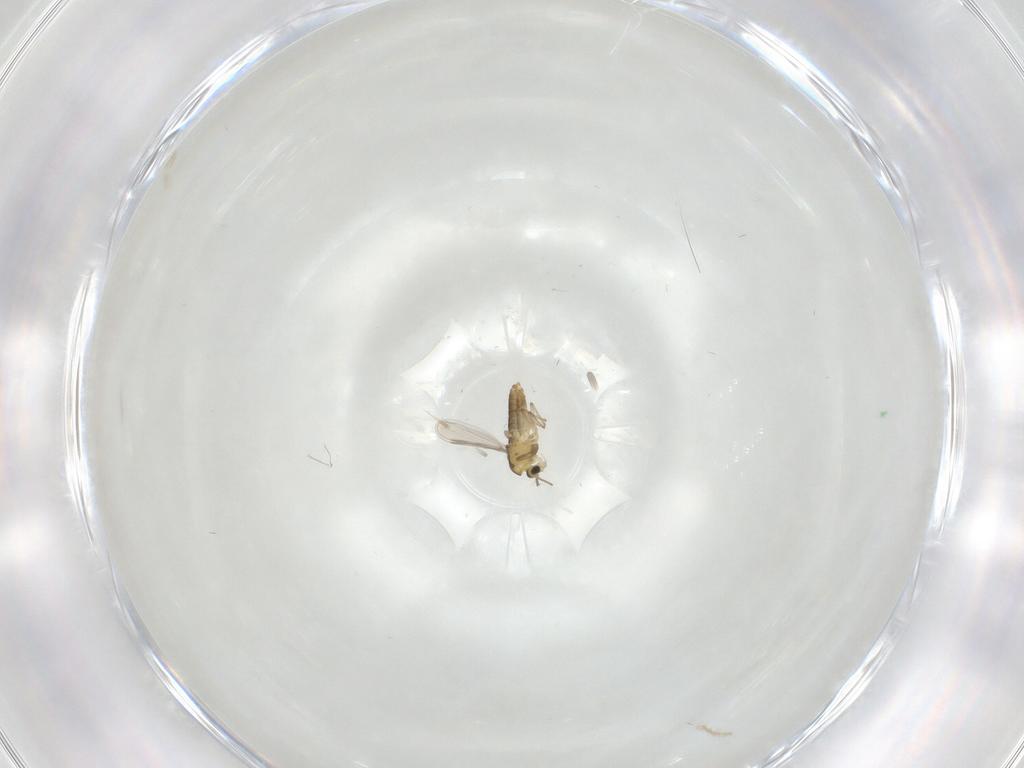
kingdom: Animalia
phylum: Arthropoda
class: Insecta
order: Diptera
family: Chironomidae
